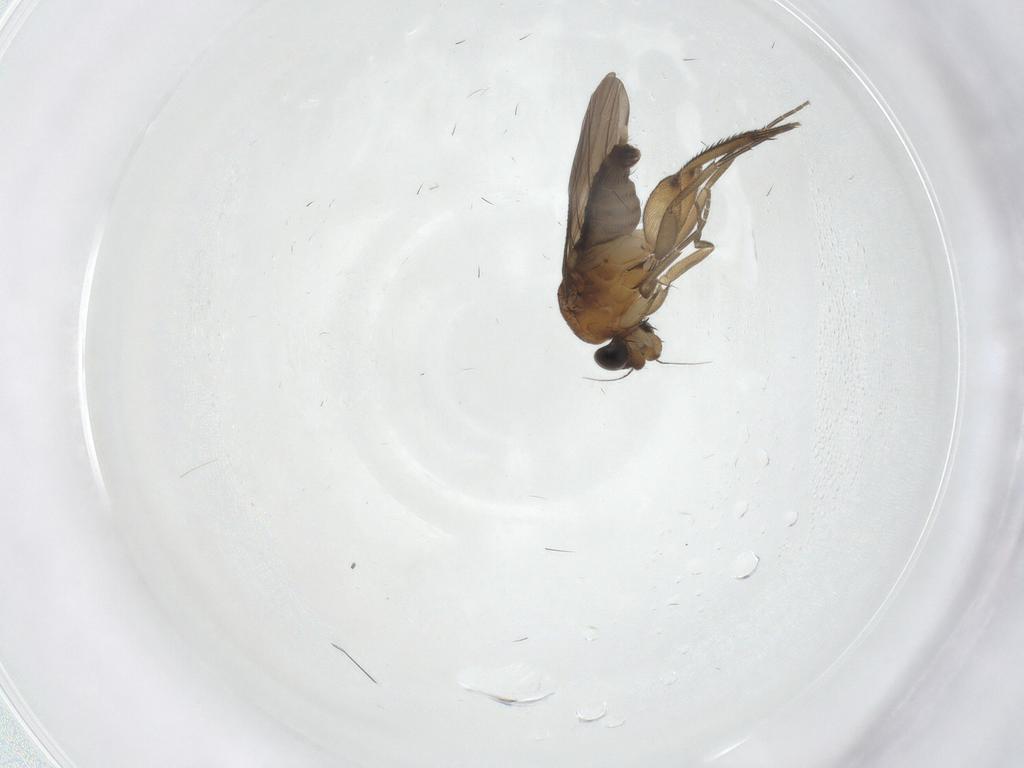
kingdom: Animalia
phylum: Arthropoda
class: Insecta
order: Diptera
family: Phoridae
